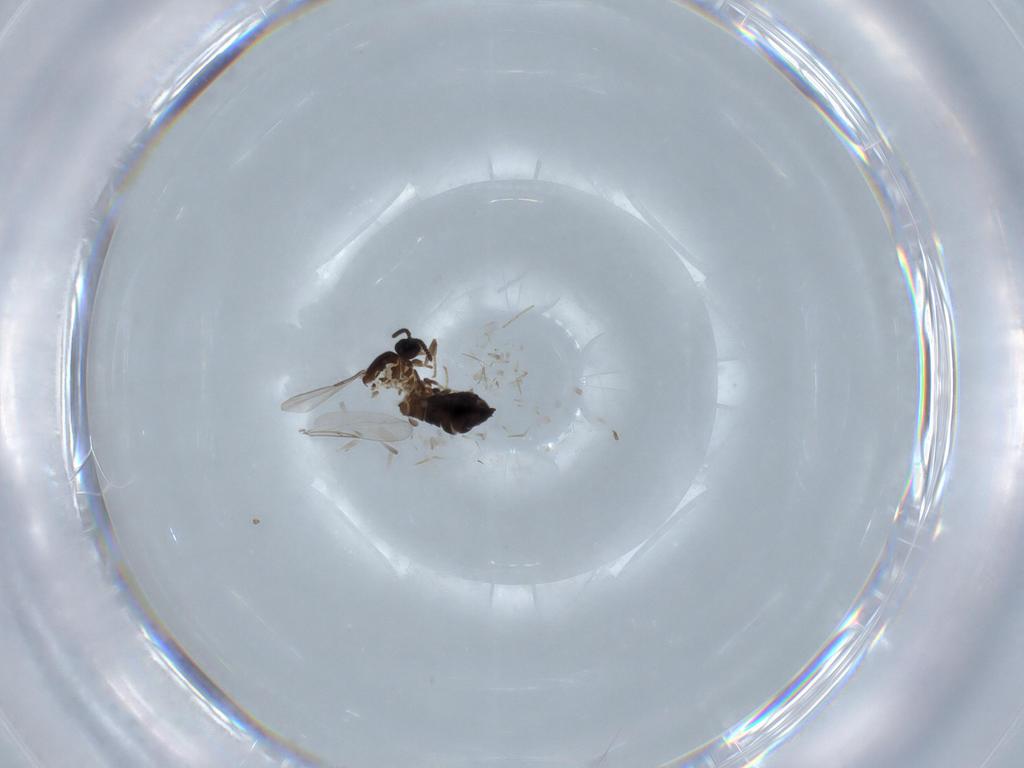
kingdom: Animalia
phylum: Arthropoda
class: Insecta
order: Diptera
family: Scatopsidae
